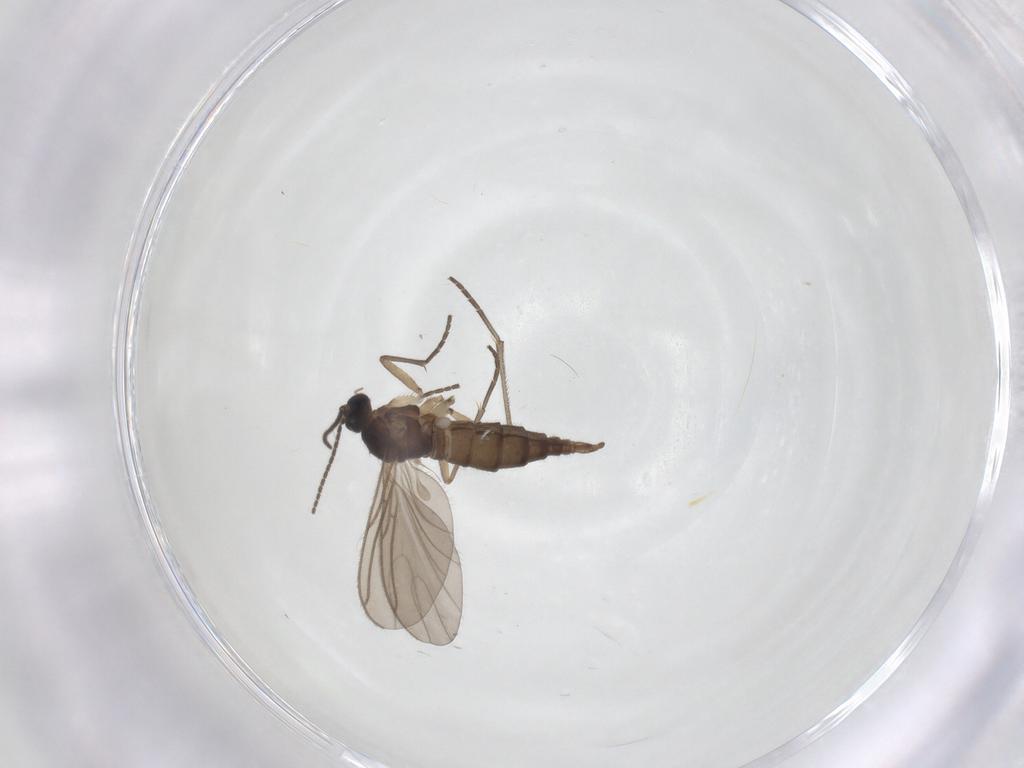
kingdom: Animalia
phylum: Arthropoda
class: Insecta
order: Diptera
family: Sciaridae
